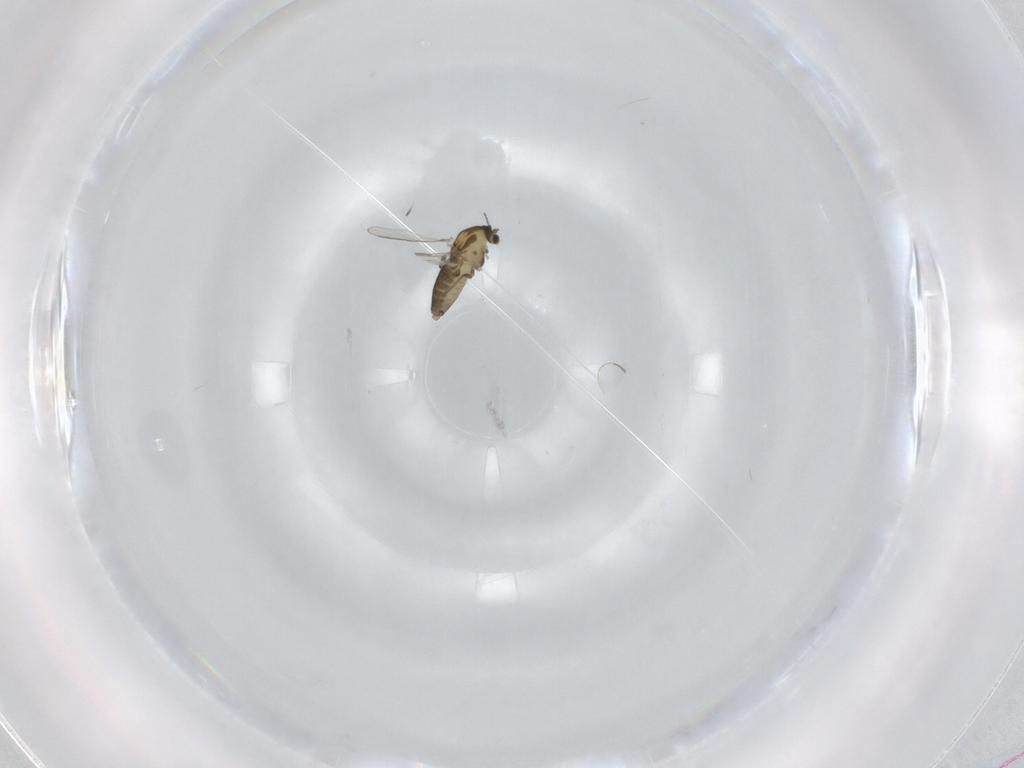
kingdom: Animalia
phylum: Arthropoda
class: Insecta
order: Diptera
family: Chironomidae
